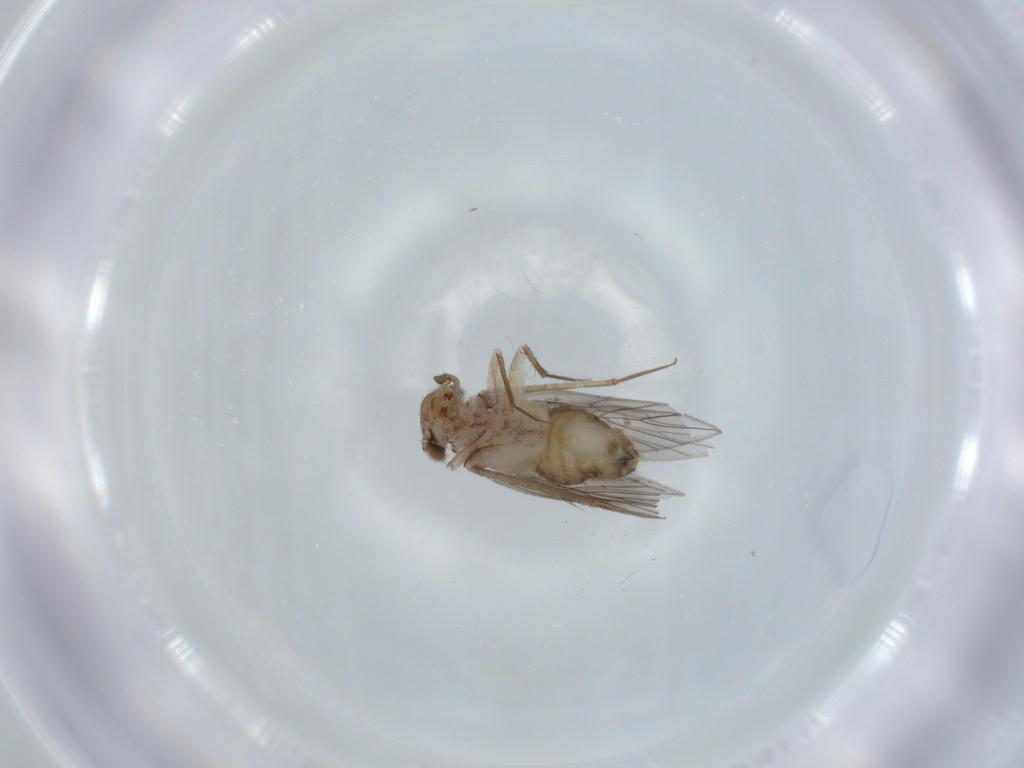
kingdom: Animalia
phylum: Arthropoda
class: Insecta
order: Psocodea
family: Lepidopsocidae
